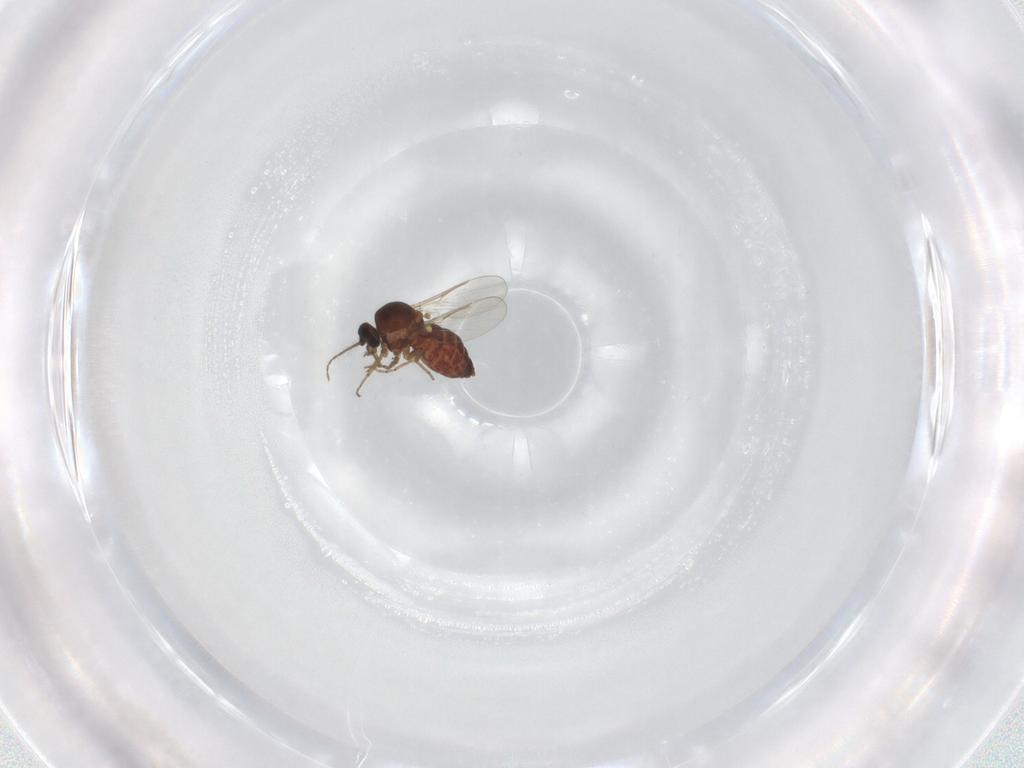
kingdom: Animalia
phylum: Arthropoda
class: Insecta
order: Diptera
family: Ceratopogonidae
